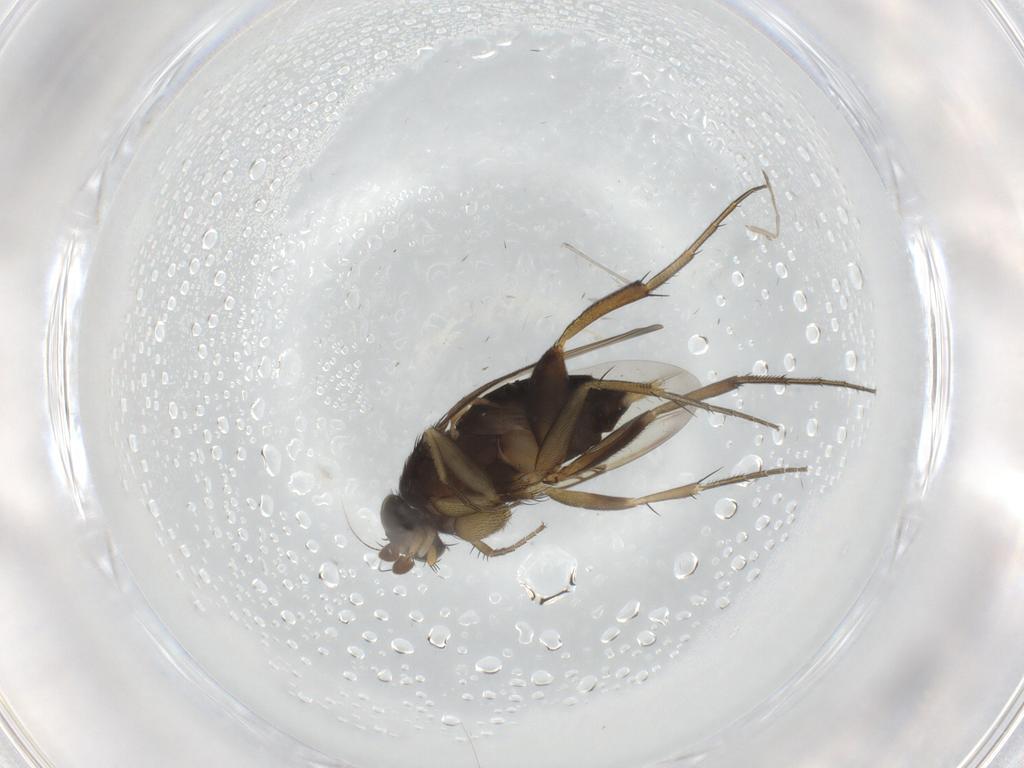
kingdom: Animalia
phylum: Arthropoda
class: Insecta
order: Diptera
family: Phoridae
